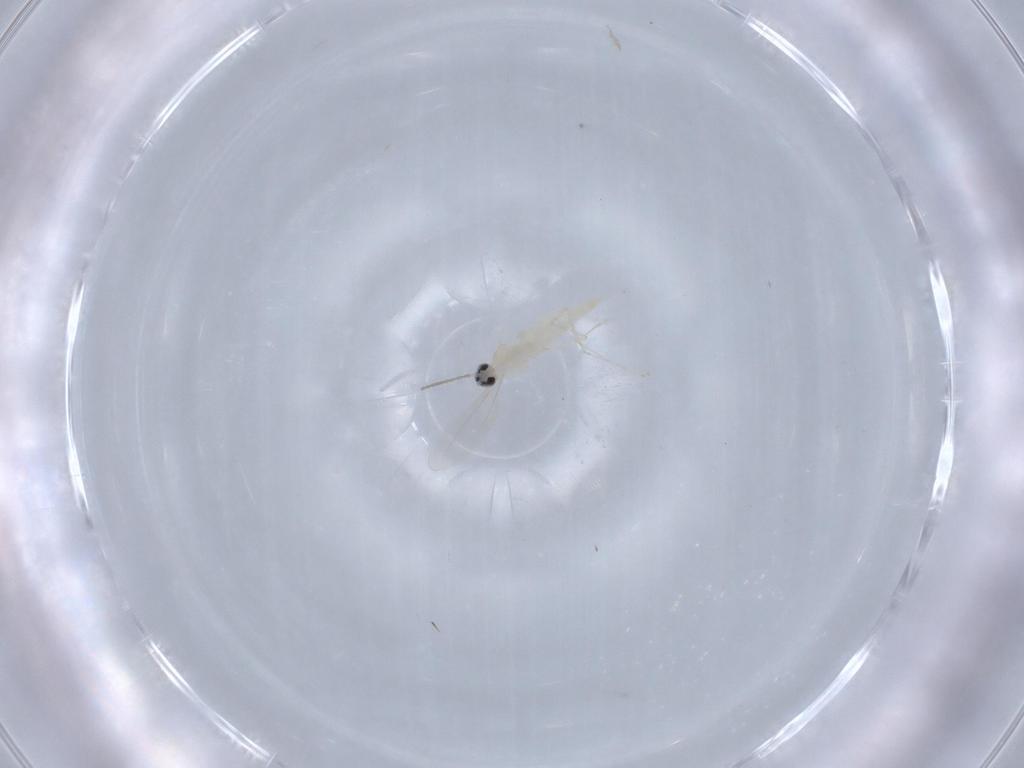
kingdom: Animalia
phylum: Arthropoda
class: Insecta
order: Diptera
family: Cecidomyiidae
